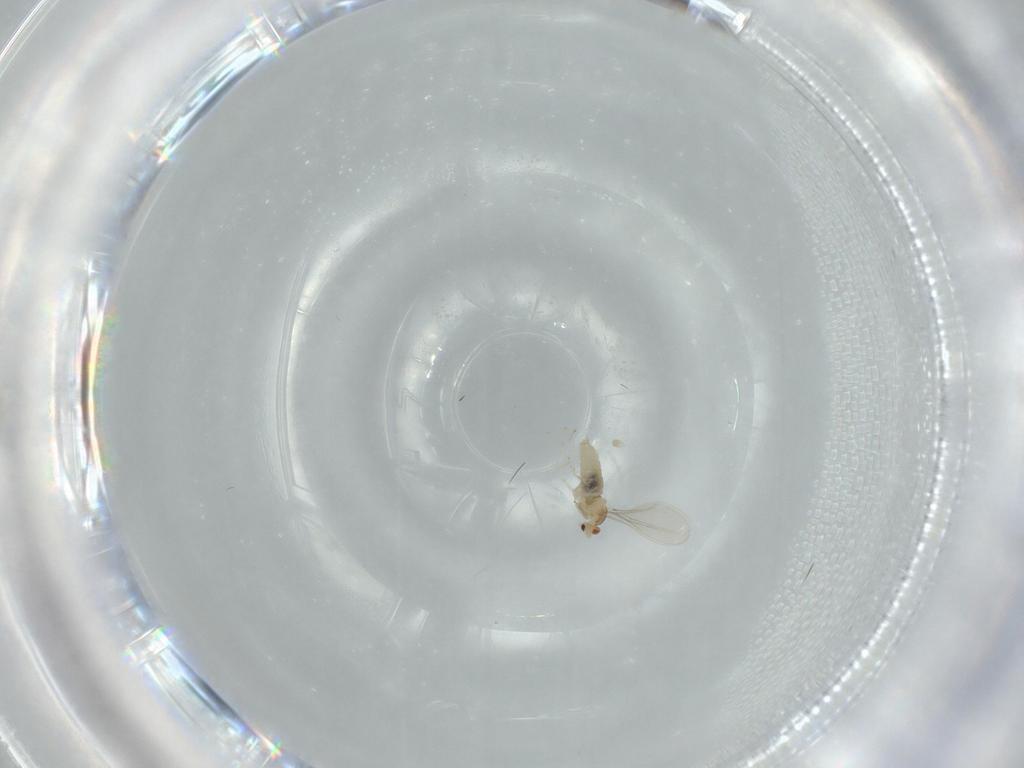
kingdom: Animalia
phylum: Arthropoda
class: Insecta
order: Diptera
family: Cecidomyiidae
